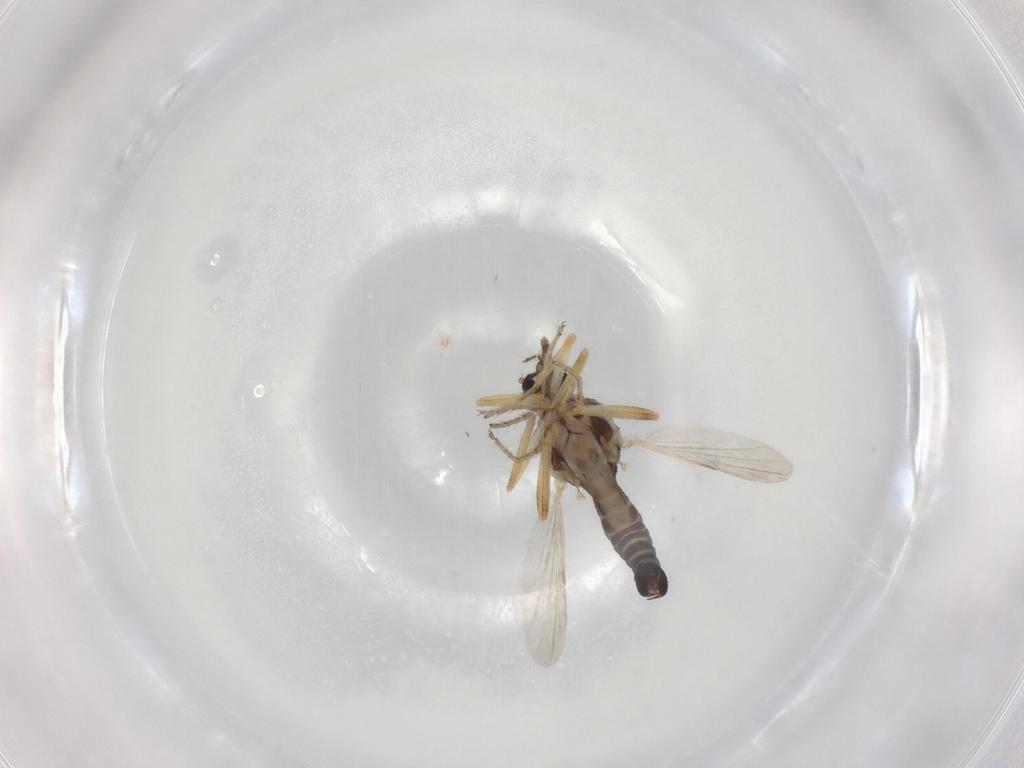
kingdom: Animalia
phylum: Arthropoda
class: Insecta
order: Diptera
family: Ceratopogonidae
